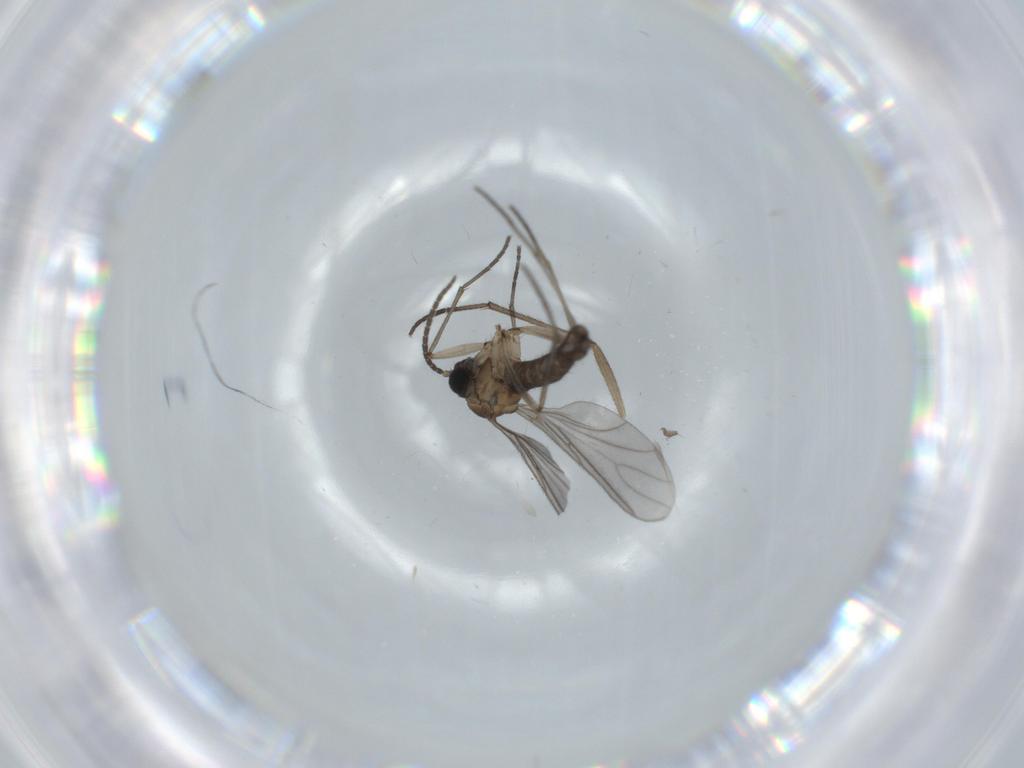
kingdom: Animalia
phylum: Arthropoda
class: Insecta
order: Diptera
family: Sciaridae
